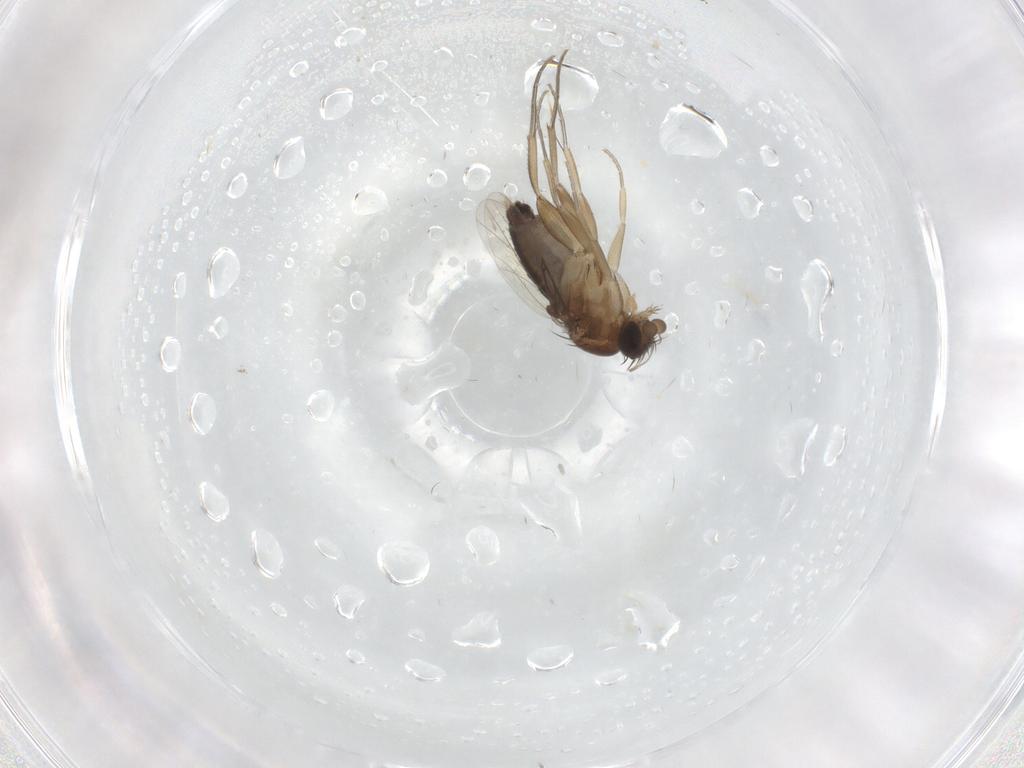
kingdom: Animalia
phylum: Arthropoda
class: Insecta
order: Diptera
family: Phoridae
